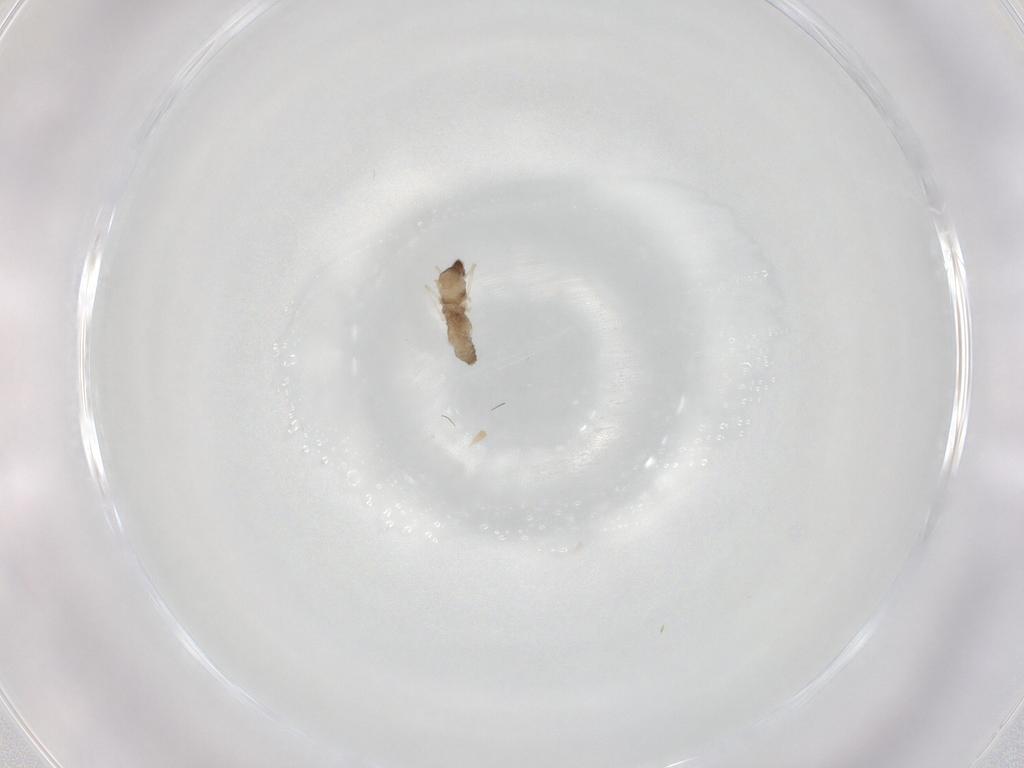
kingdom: Animalia
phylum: Arthropoda
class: Insecta
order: Diptera
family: Cecidomyiidae
